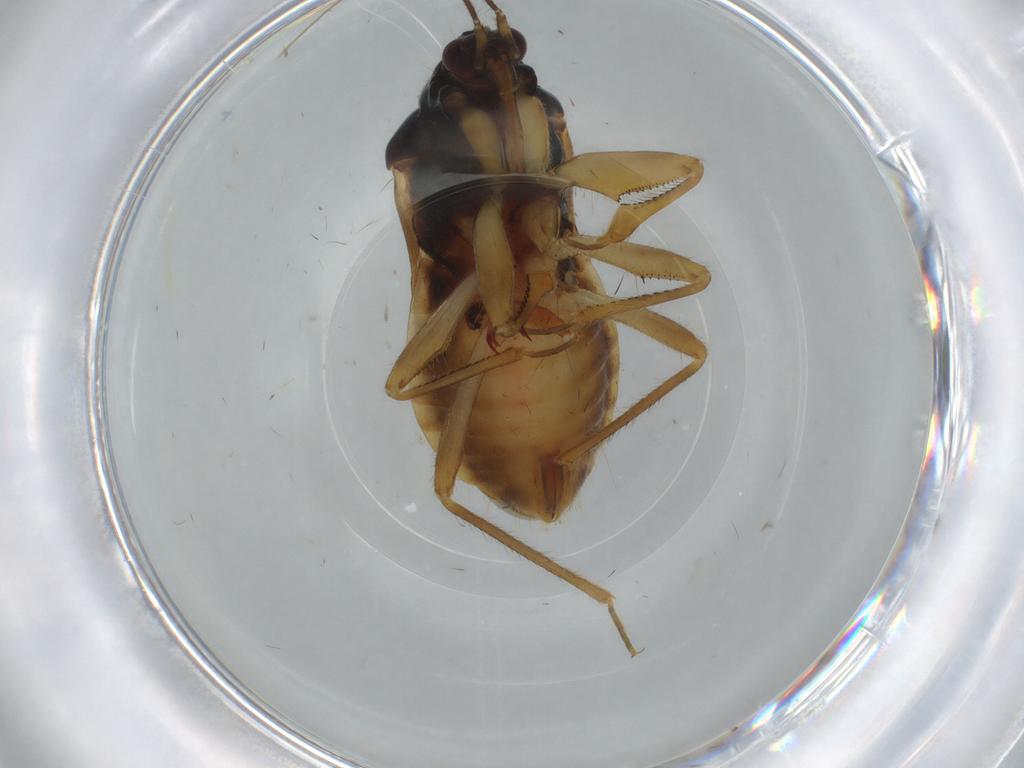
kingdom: Animalia
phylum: Arthropoda
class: Insecta
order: Hemiptera
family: Nabidae
